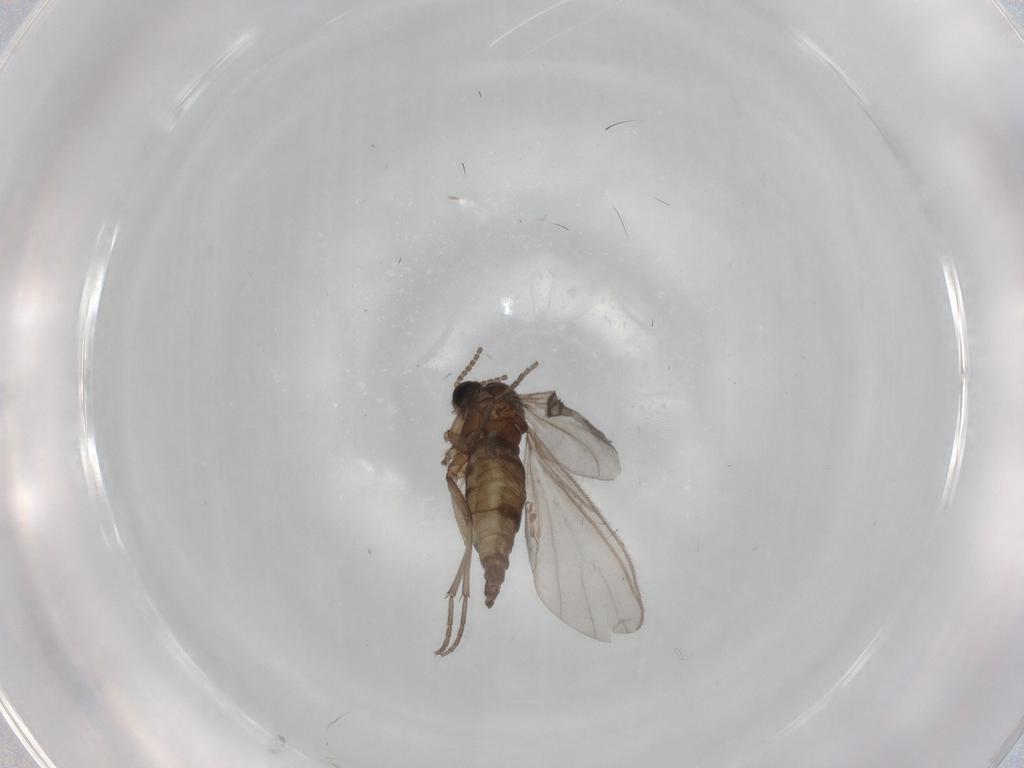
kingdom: Animalia
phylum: Arthropoda
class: Insecta
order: Diptera
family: Sciaridae
